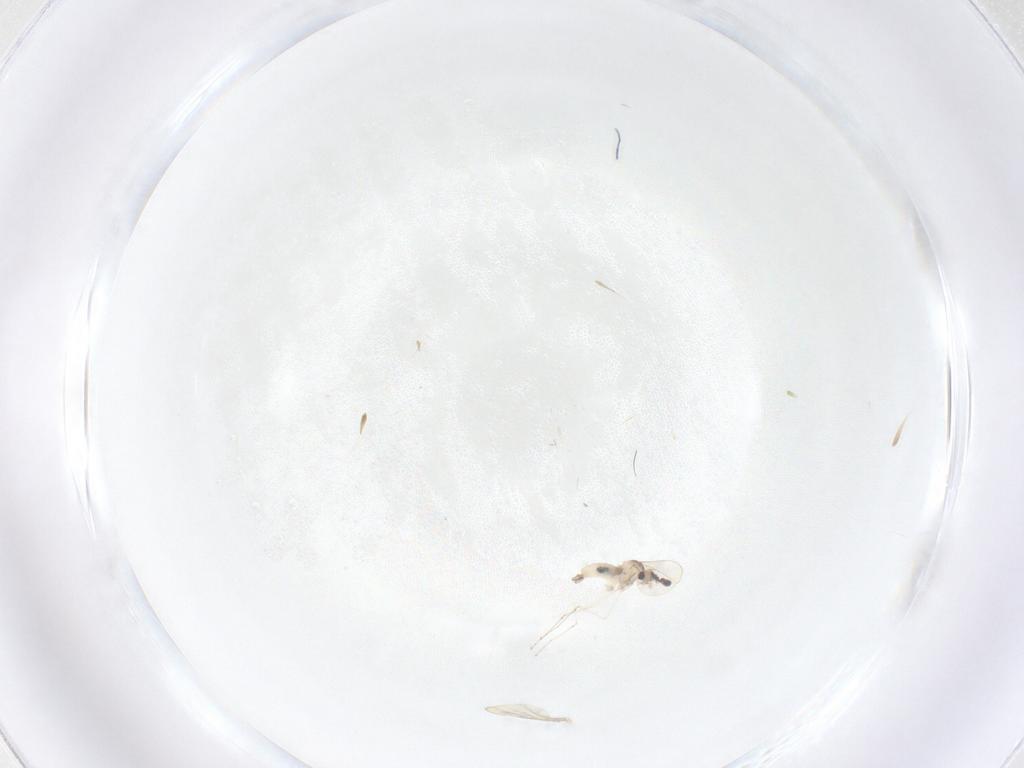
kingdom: Animalia
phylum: Arthropoda
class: Insecta
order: Diptera
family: Cecidomyiidae
